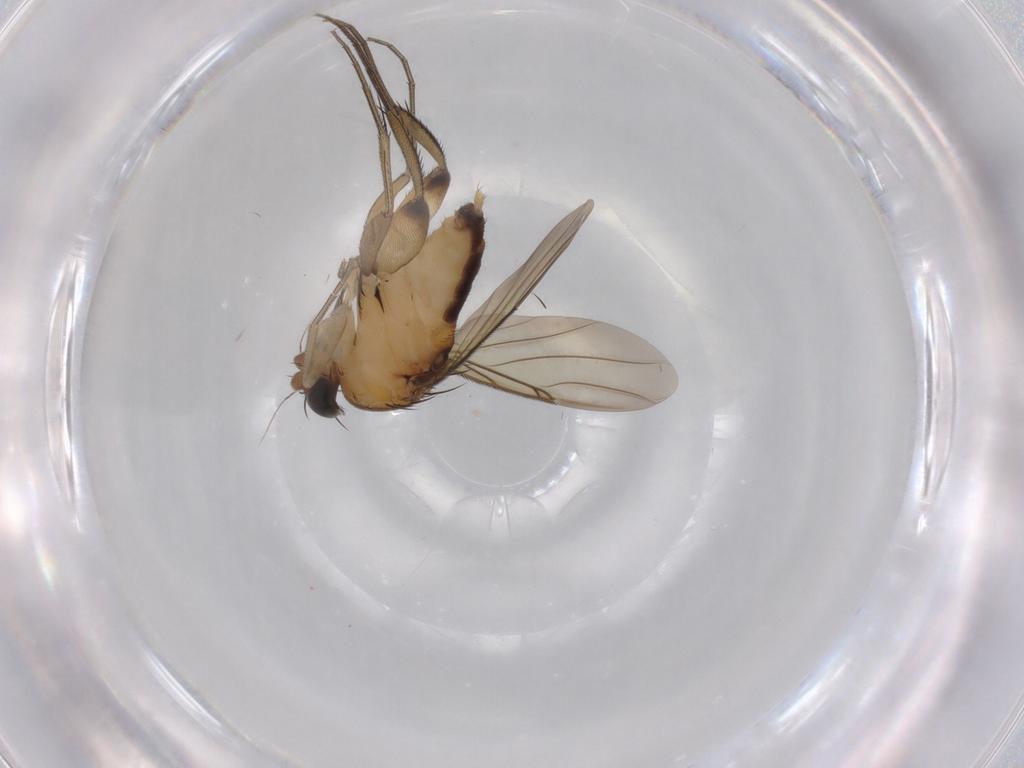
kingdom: Animalia
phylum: Arthropoda
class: Insecta
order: Diptera
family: Phoridae
